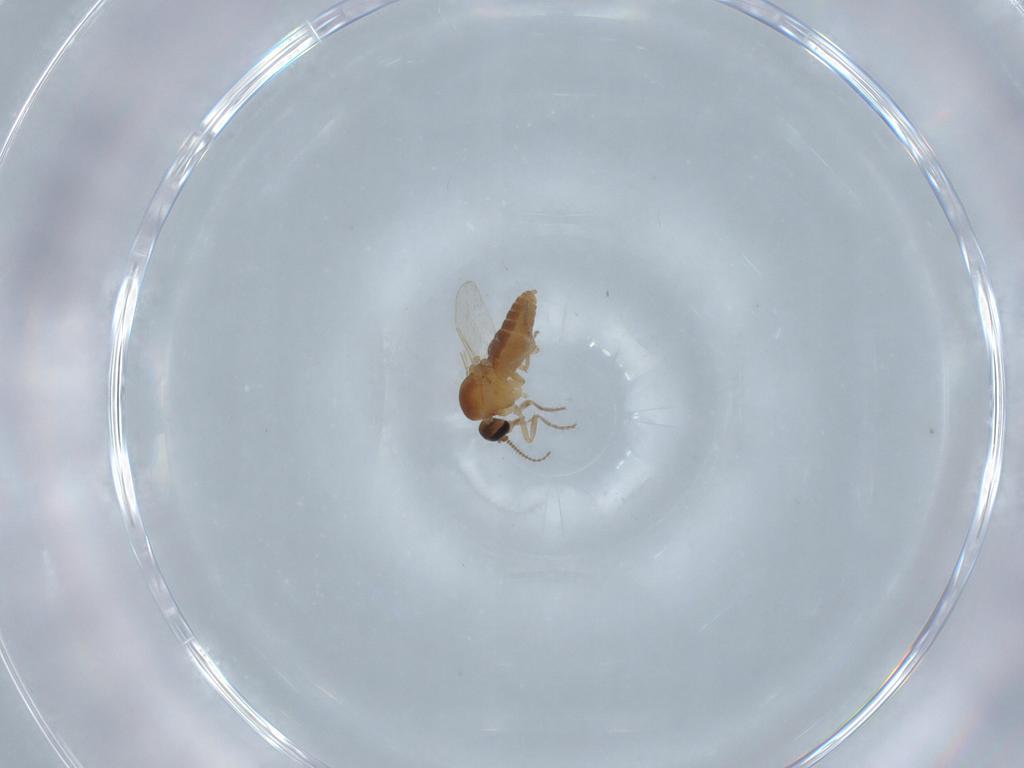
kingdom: Animalia
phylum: Arthropoda
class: Insecta
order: Diptera
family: Ceratopogonidae
